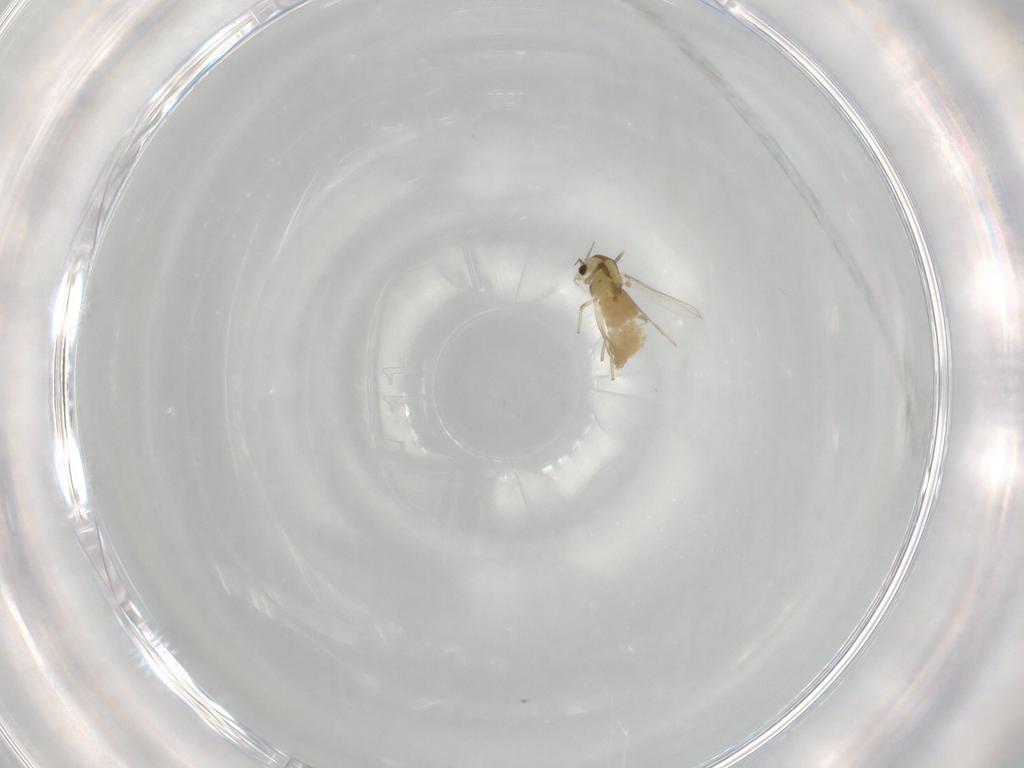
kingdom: Animalia
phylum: Arthropoda
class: Insecta
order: Diptera
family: Chironomidae
